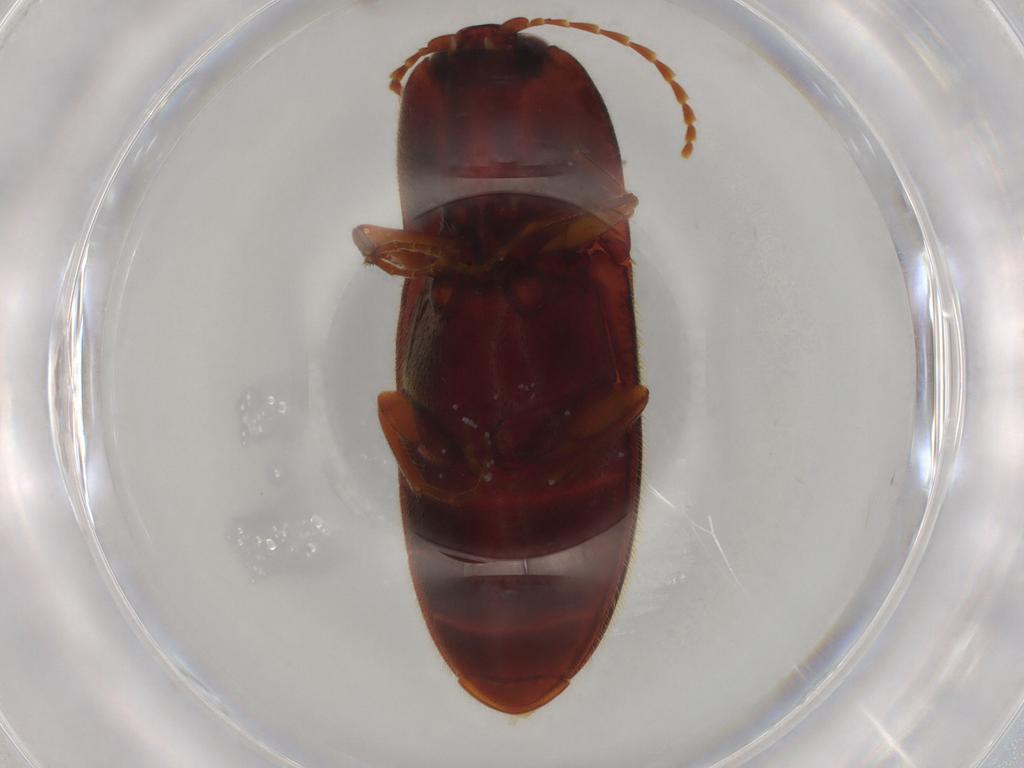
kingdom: Animalia
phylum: Arthropoda
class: Insecta
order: Coleoptera
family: Elateridae
